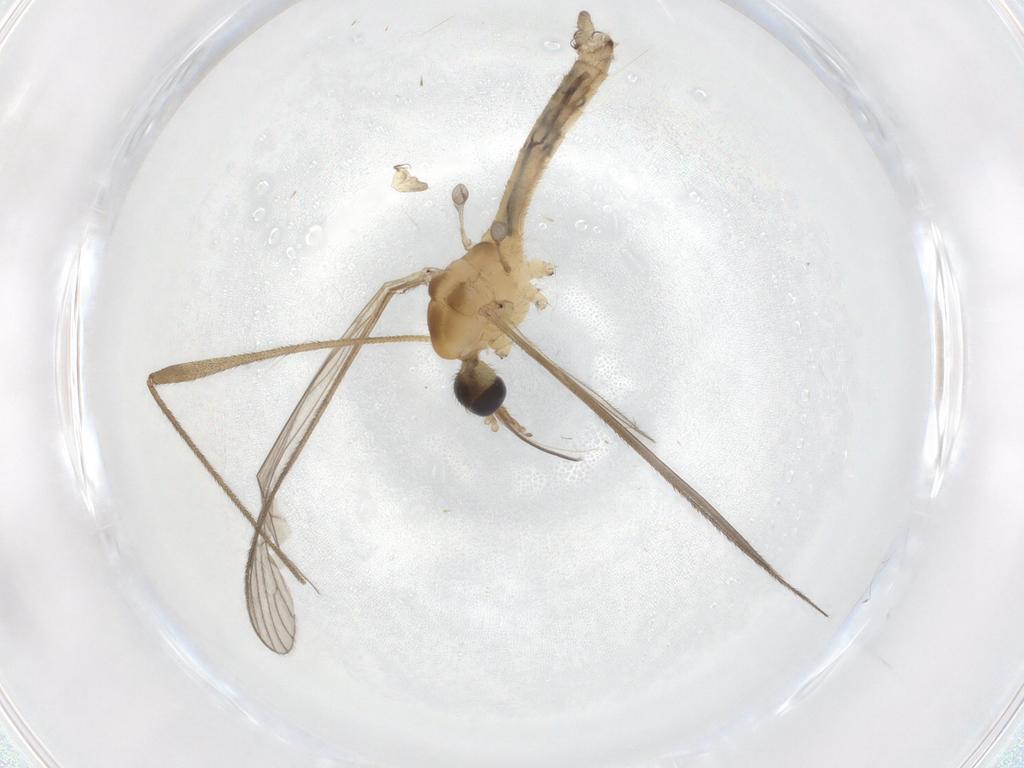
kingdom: Animalia
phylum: Arthropoda
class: Insecta
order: Diptera
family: Limoniidae
